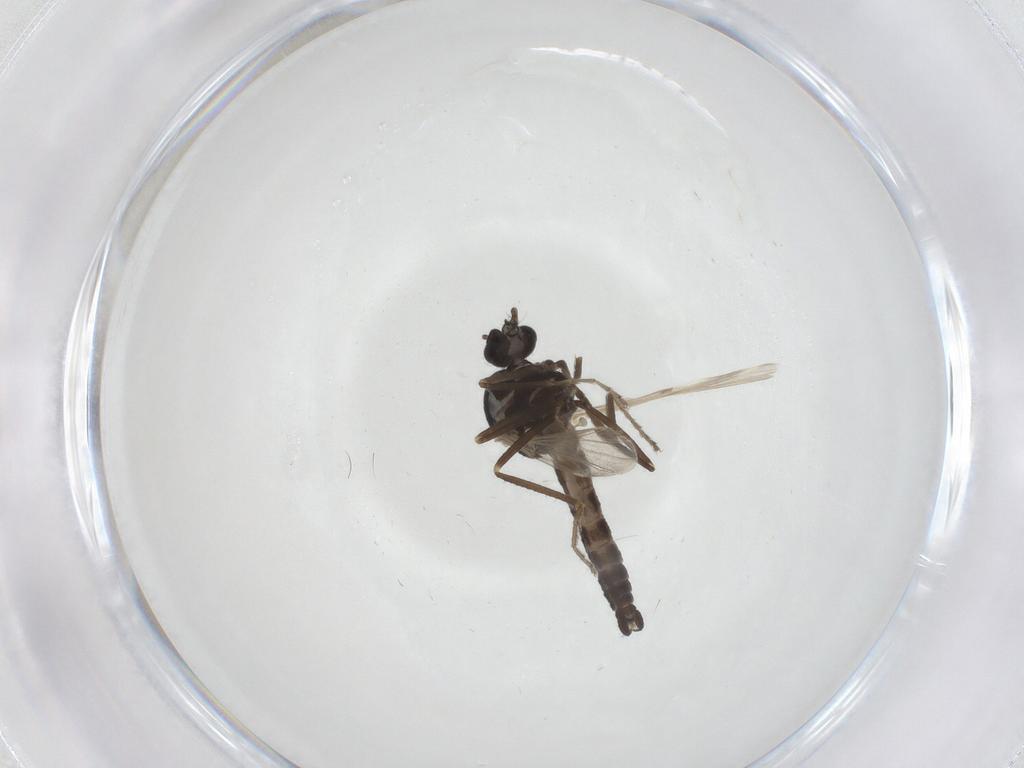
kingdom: Animalia
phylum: Arthropoda
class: Insecta
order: Diptera
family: Ceratopogonidae
